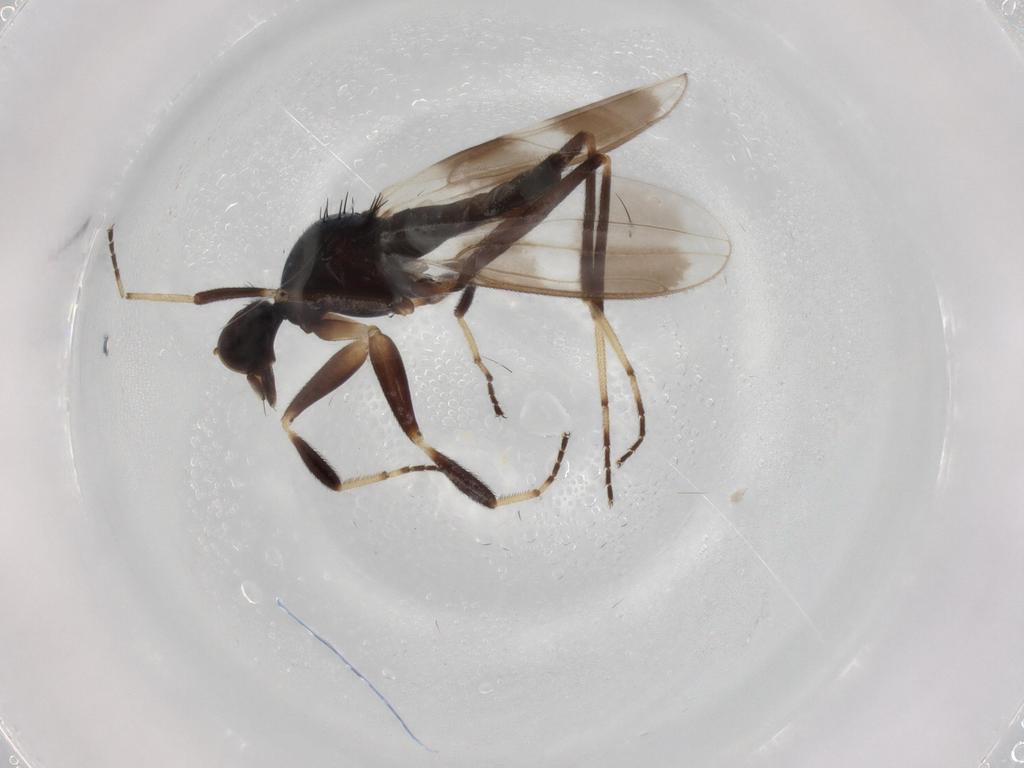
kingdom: Animalia
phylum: Arthropoda
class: Insecta
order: Diptera
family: Hybotidae
